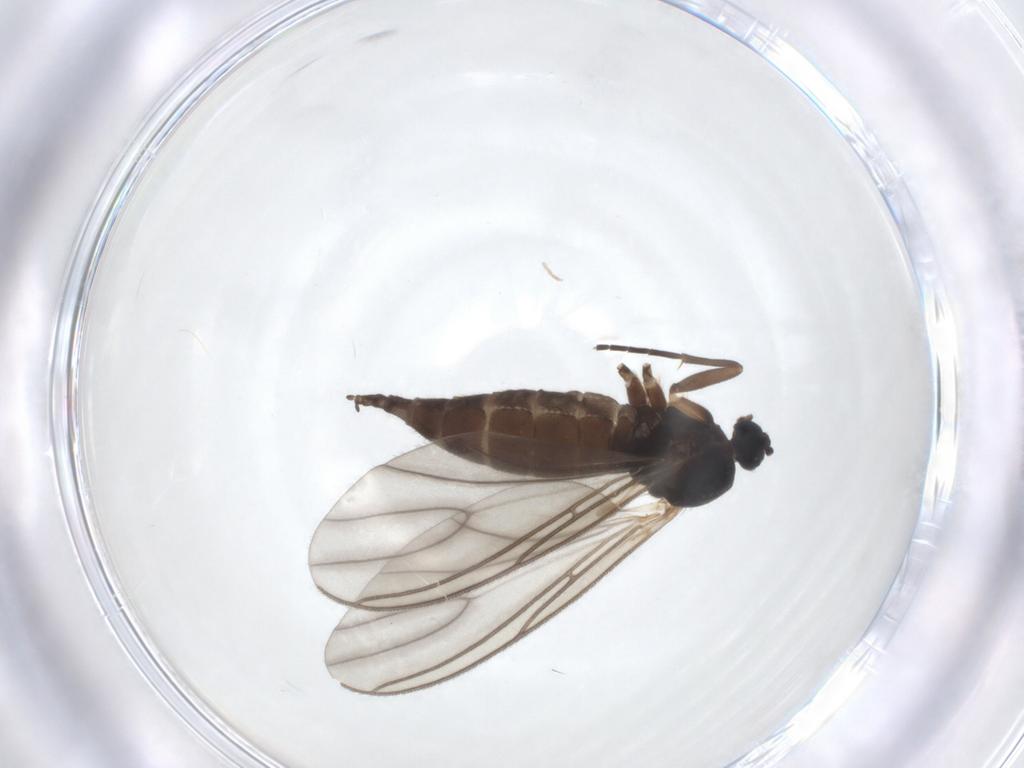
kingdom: Animalia
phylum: Arthropoda
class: Insecta
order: Diptera
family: Sciaridae
